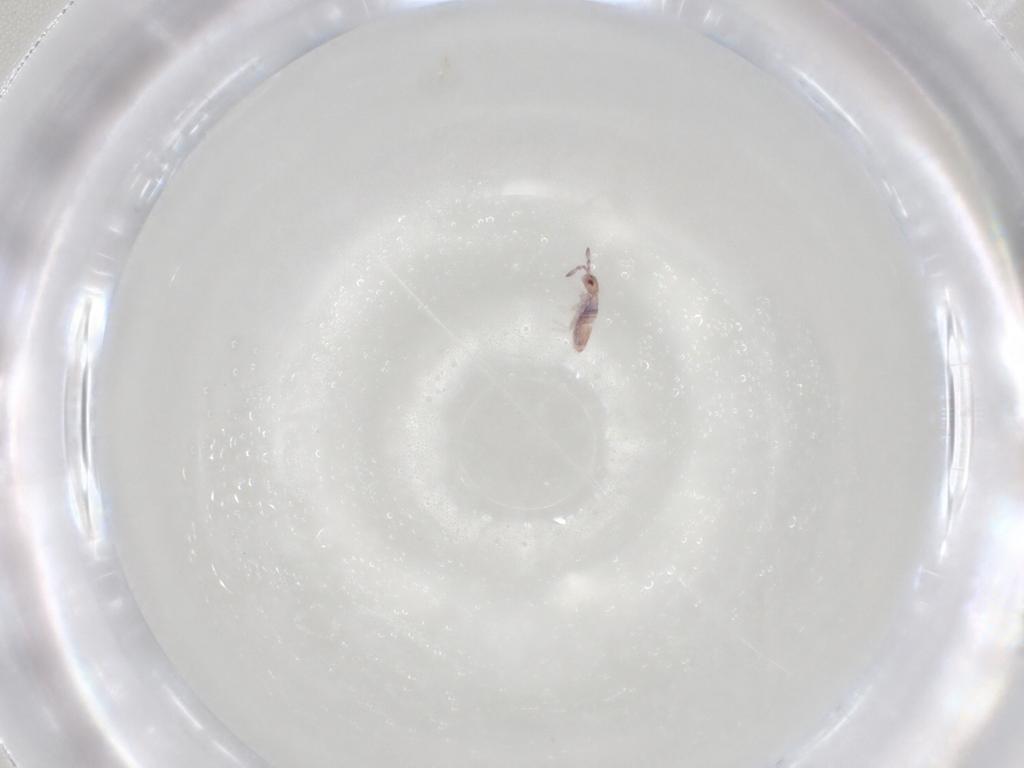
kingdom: Animalia
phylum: Arthropoda
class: Collembola
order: Entomobryomorpha
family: Entomobryidae
